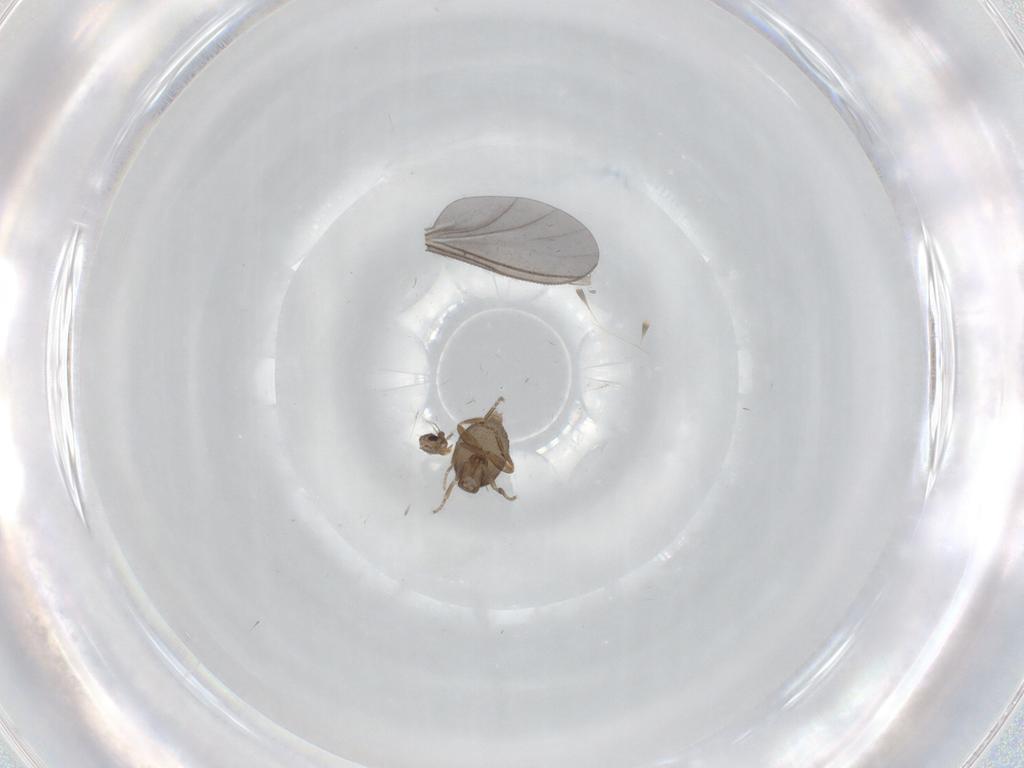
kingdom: Animalia
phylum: Arthropoda
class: Insecta
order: Diptera
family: Phoridae
